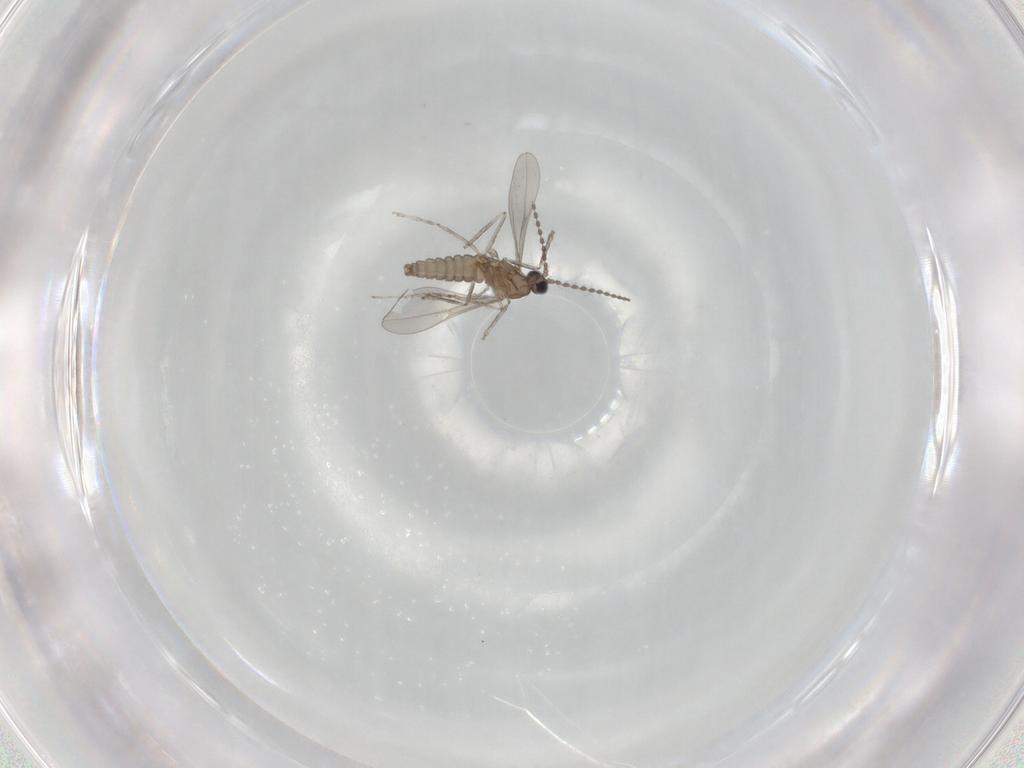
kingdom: Animalia
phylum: Arthropoda
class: Insecta
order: Diptera
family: Cecidomyiidae
